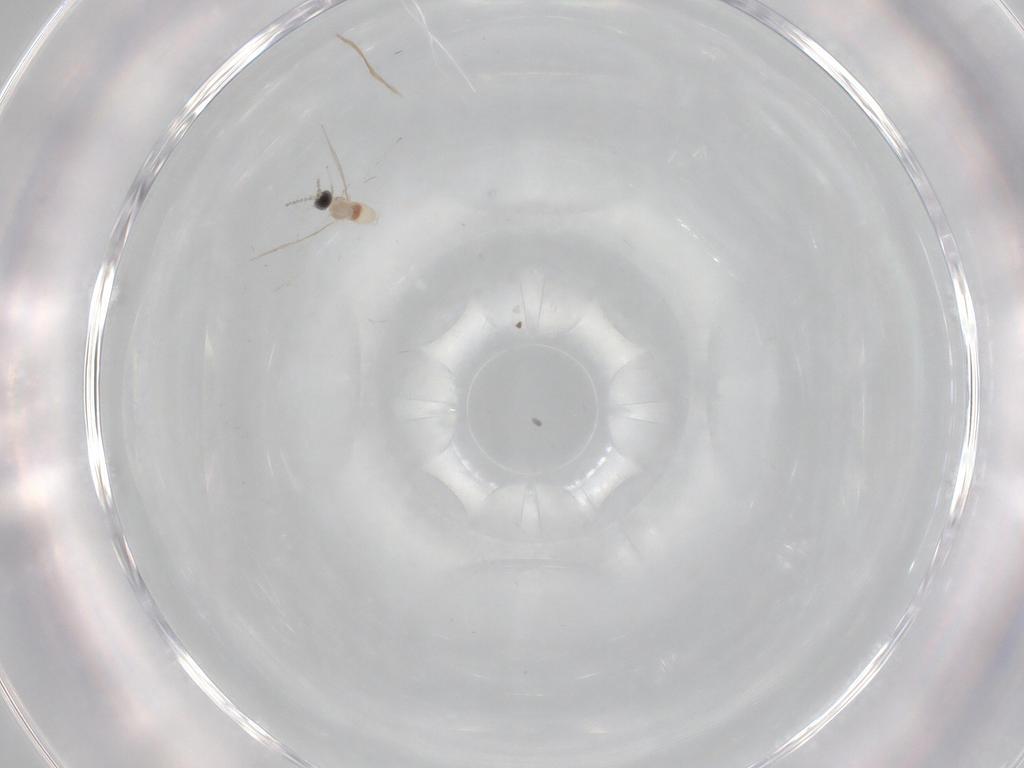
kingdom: Animalia
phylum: Arthropoda
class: Insecta
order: Diptera
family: Cecidomyiidae
